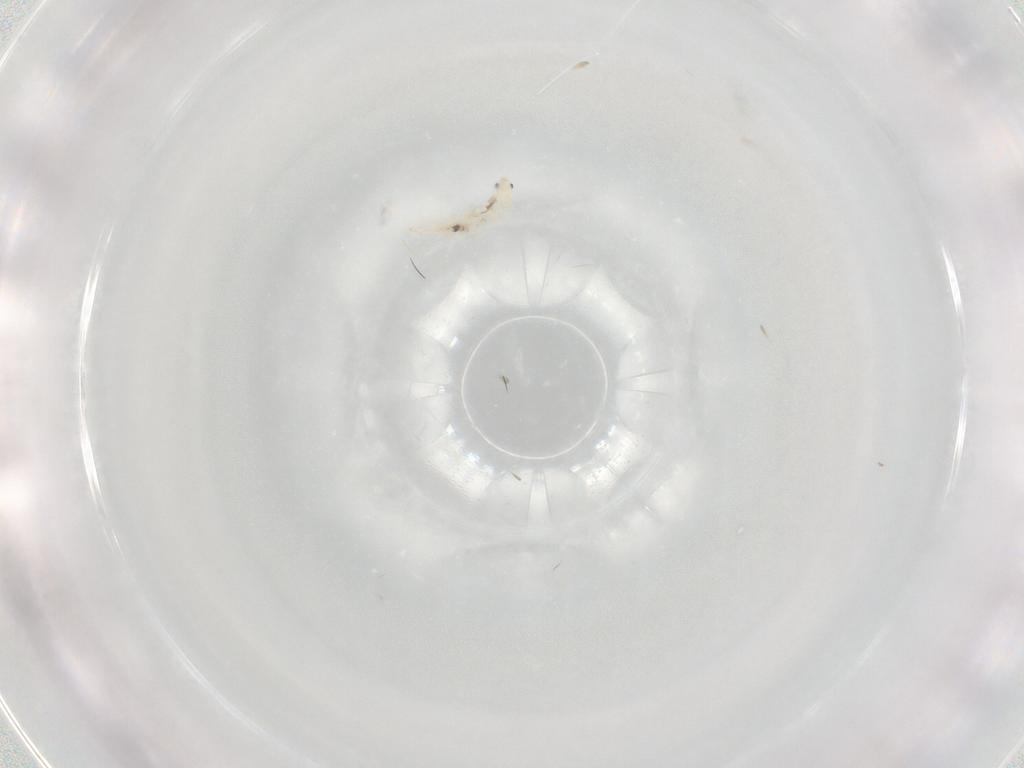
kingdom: Animalia
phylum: Arthropoda
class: Collembola
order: Entomobryomorpha
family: Entomobryidae
